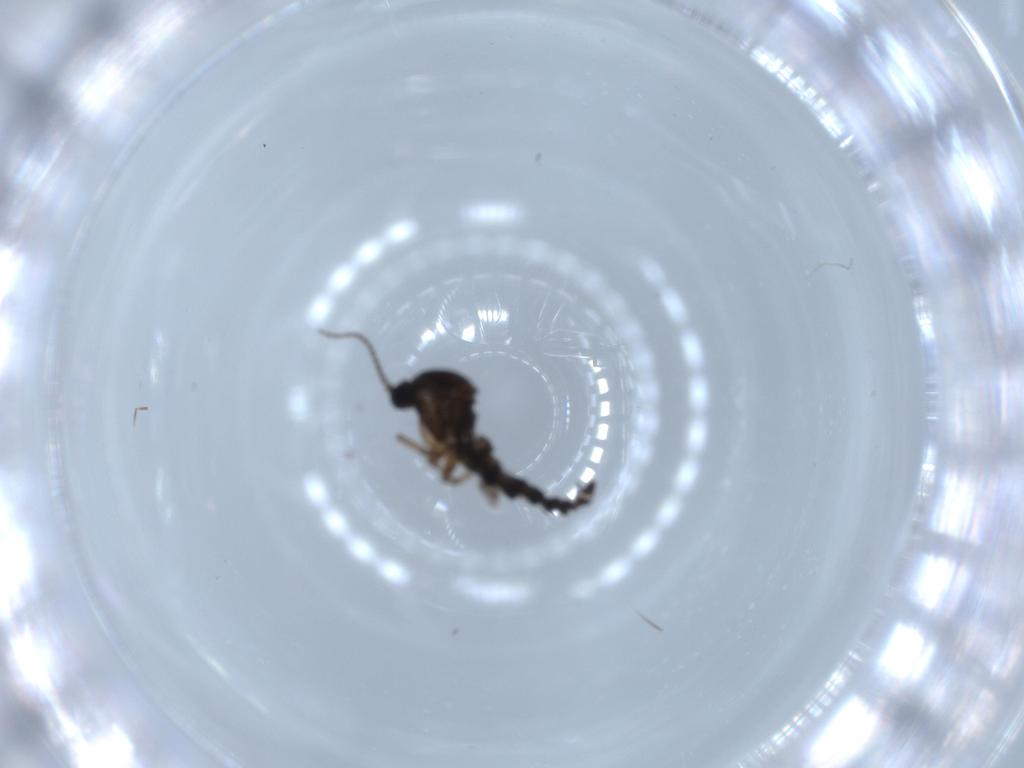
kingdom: Animalia
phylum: Arthropoda
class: Insecta
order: Diptera
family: Sciaridae
